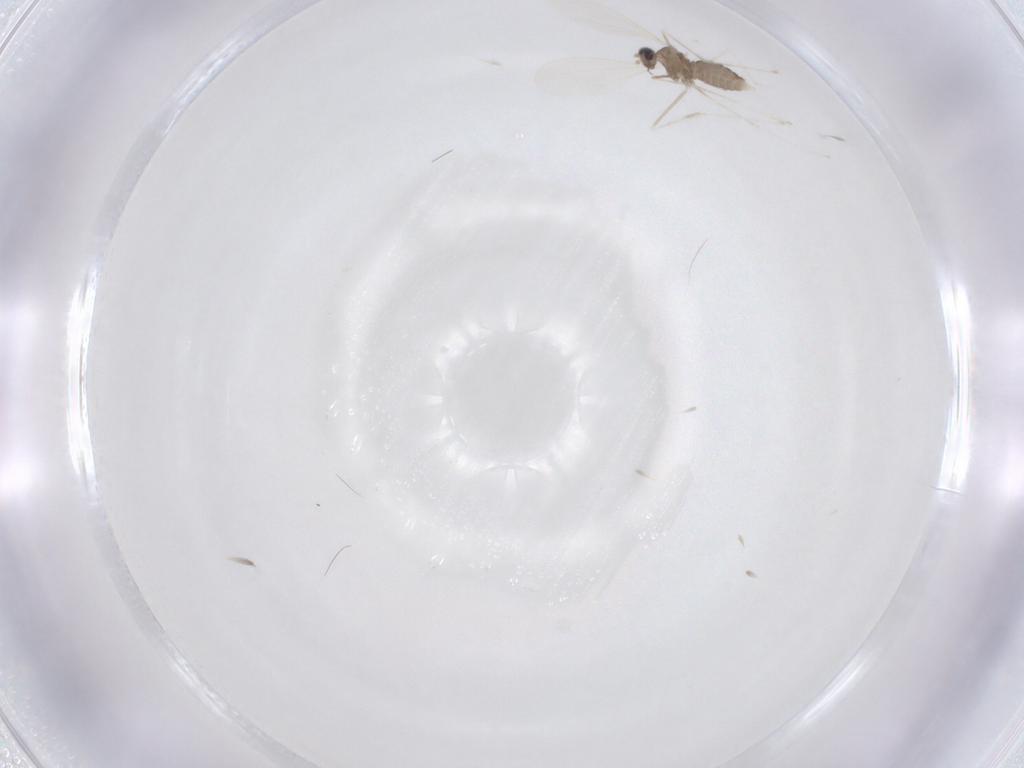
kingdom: Animalia
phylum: Arthropoda
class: Insecta
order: Diptera
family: Cecidomyiidae
